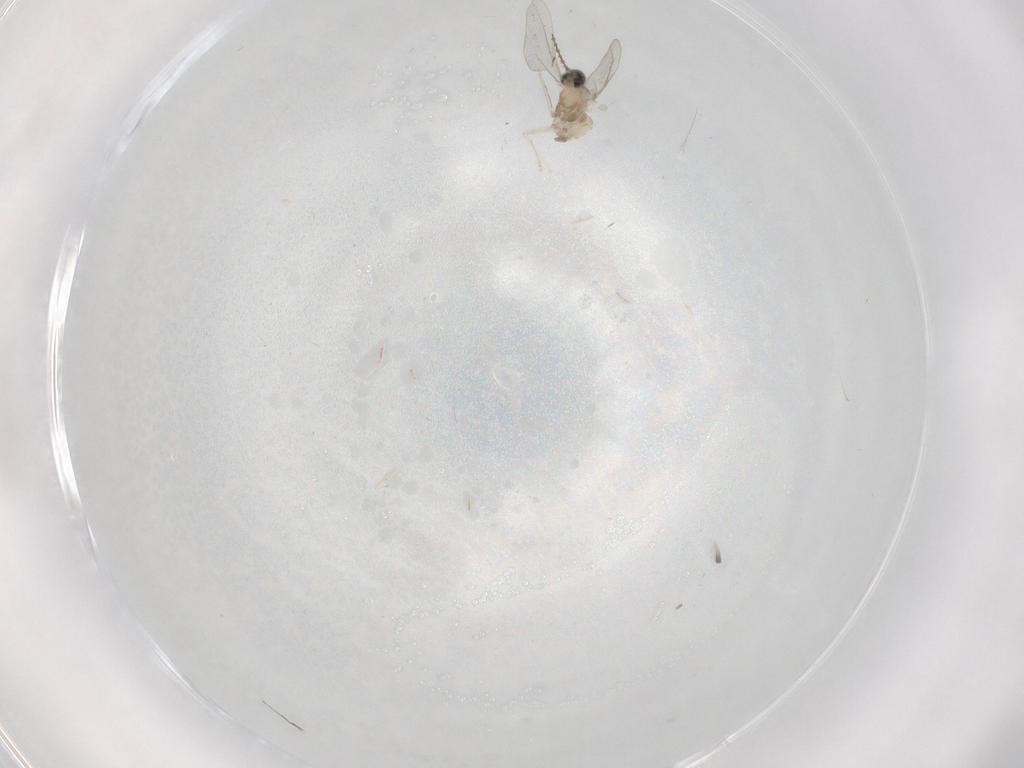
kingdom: Animalia
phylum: Arthropoda
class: Insecta
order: Diptera
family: Cecidomyiidae
